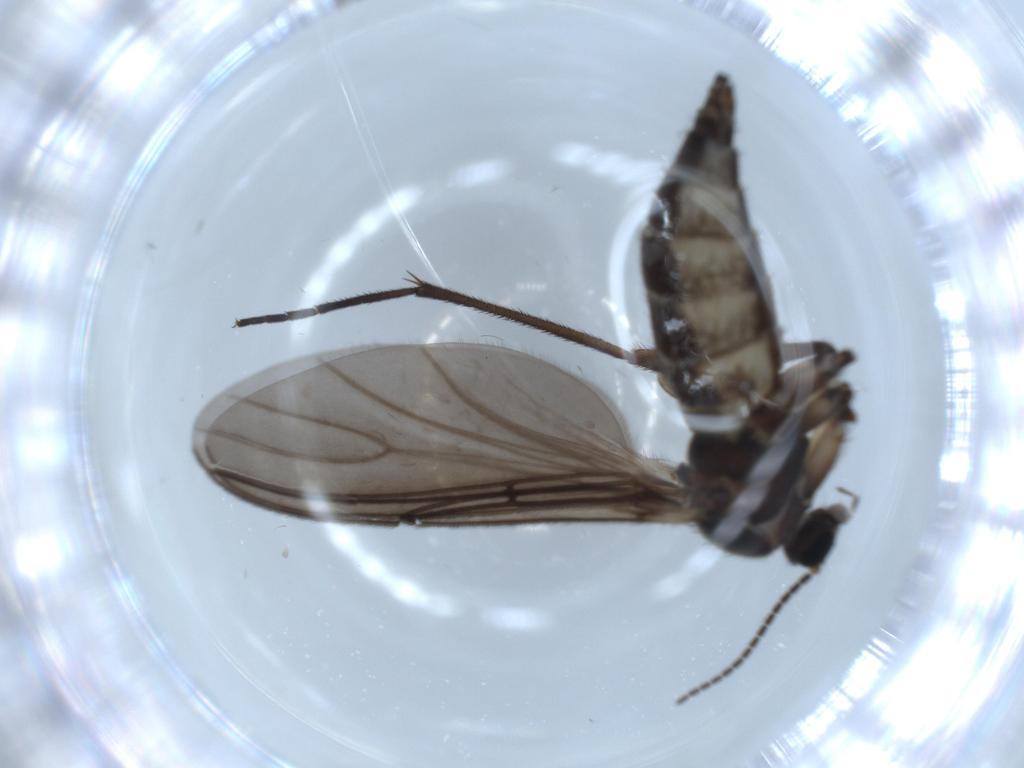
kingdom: Animalia
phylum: Arthropoda
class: Insecta
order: Diptera
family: Sciaridae
